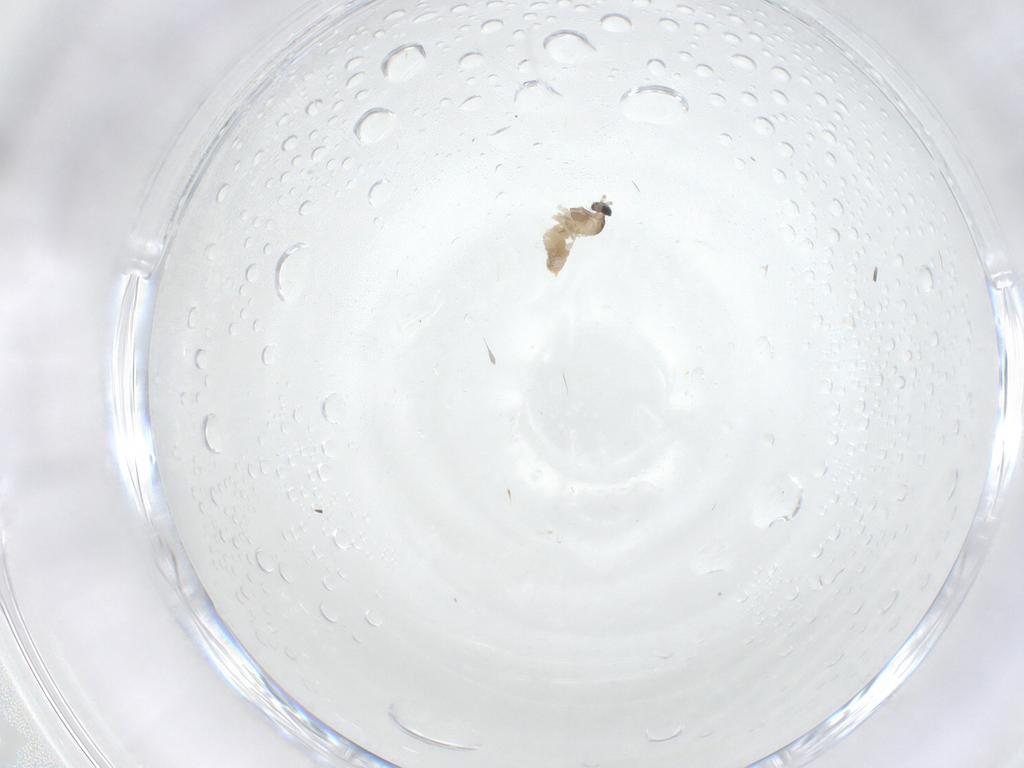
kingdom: Animalia
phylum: Arthropoda
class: Insecta
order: Diptera
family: Cecidomyiidae
